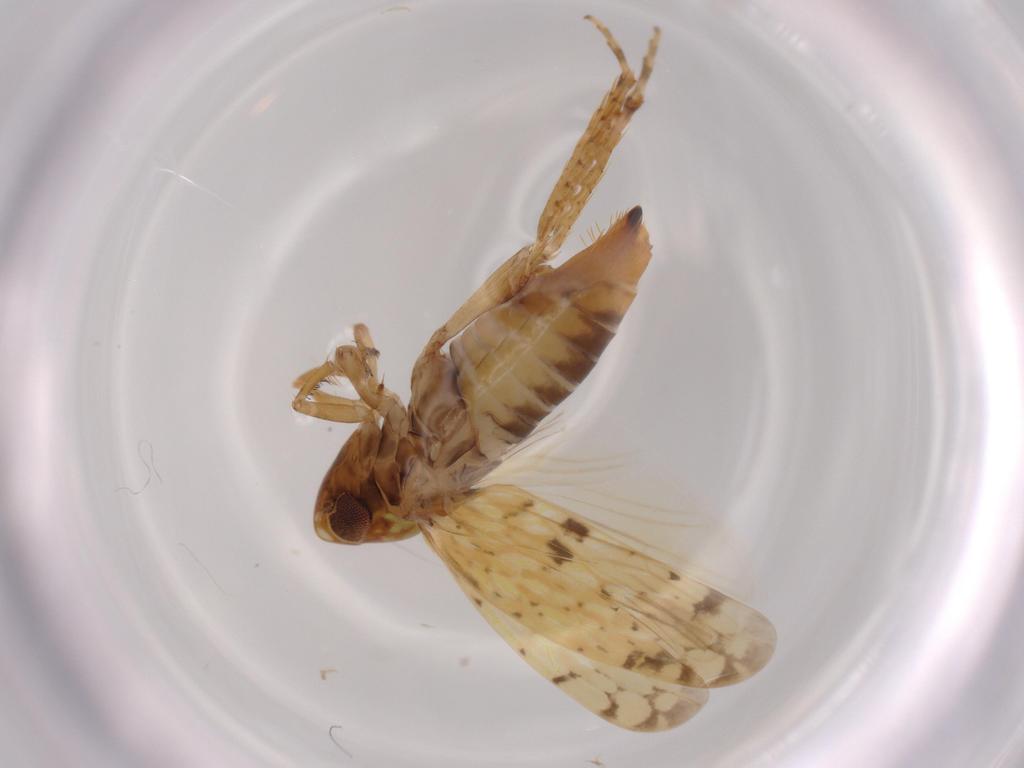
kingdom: Animalia
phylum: Arthropoda
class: Insecta
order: Hemiptera
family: Cicadellidae
